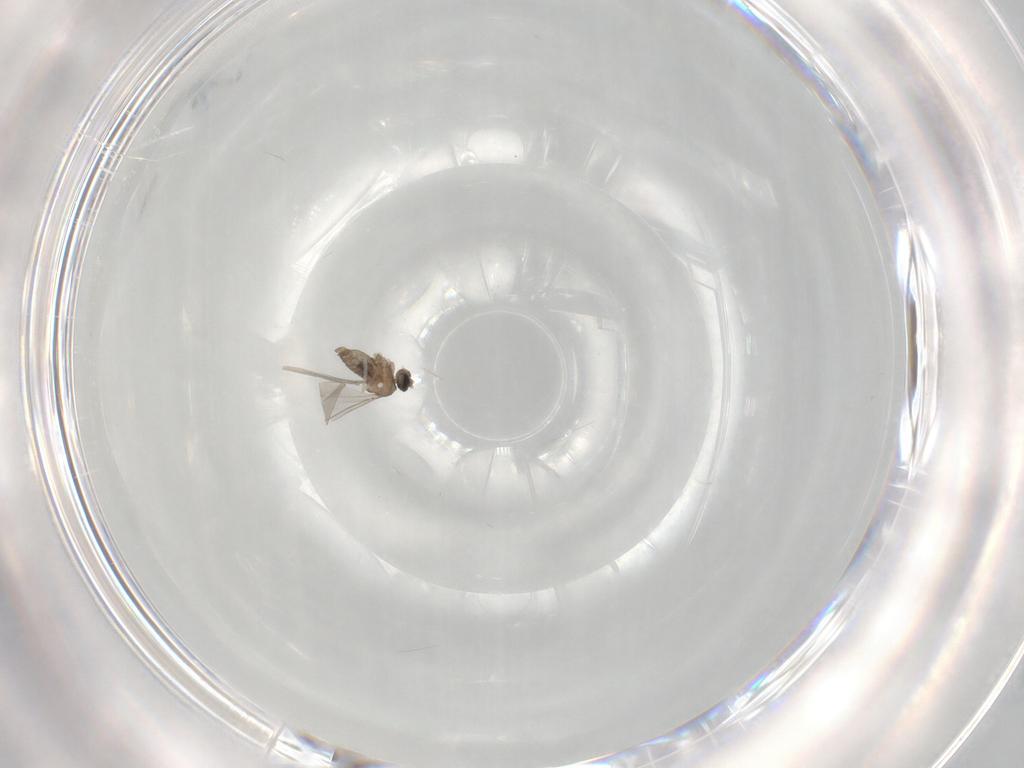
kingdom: Animalia
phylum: Arthropoda
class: Insecta
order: Diptera
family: Cecidomyiidae
